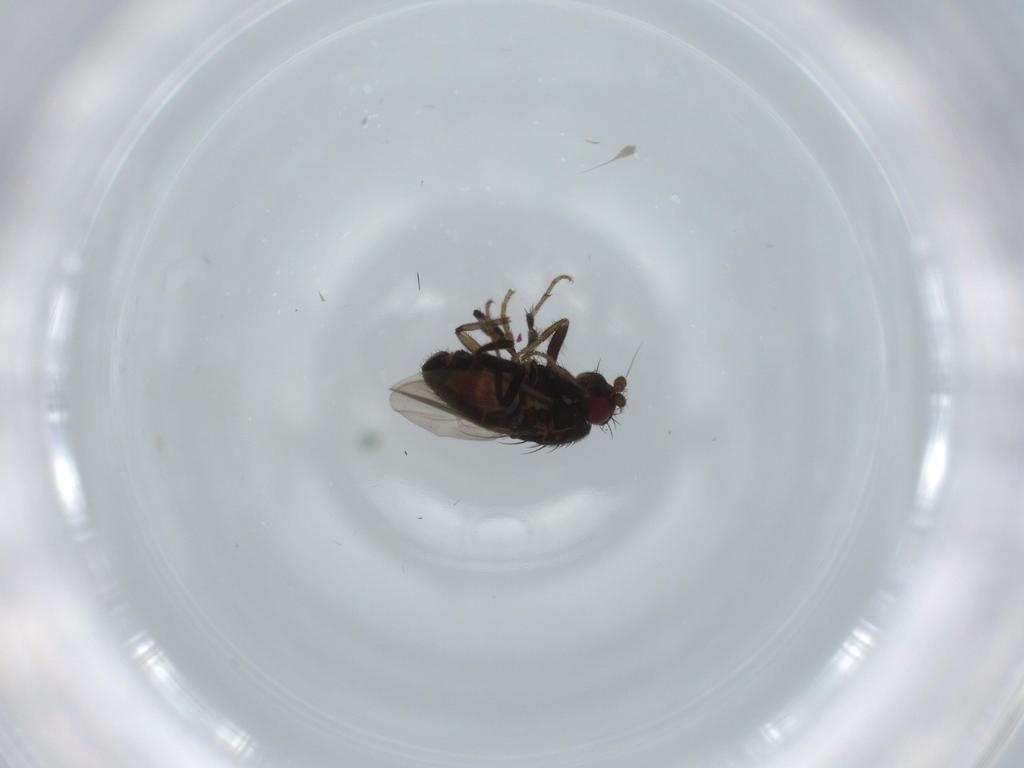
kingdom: Animalia
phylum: Arthropoda
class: Insecta
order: Diptera
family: Sphaeroceridae
